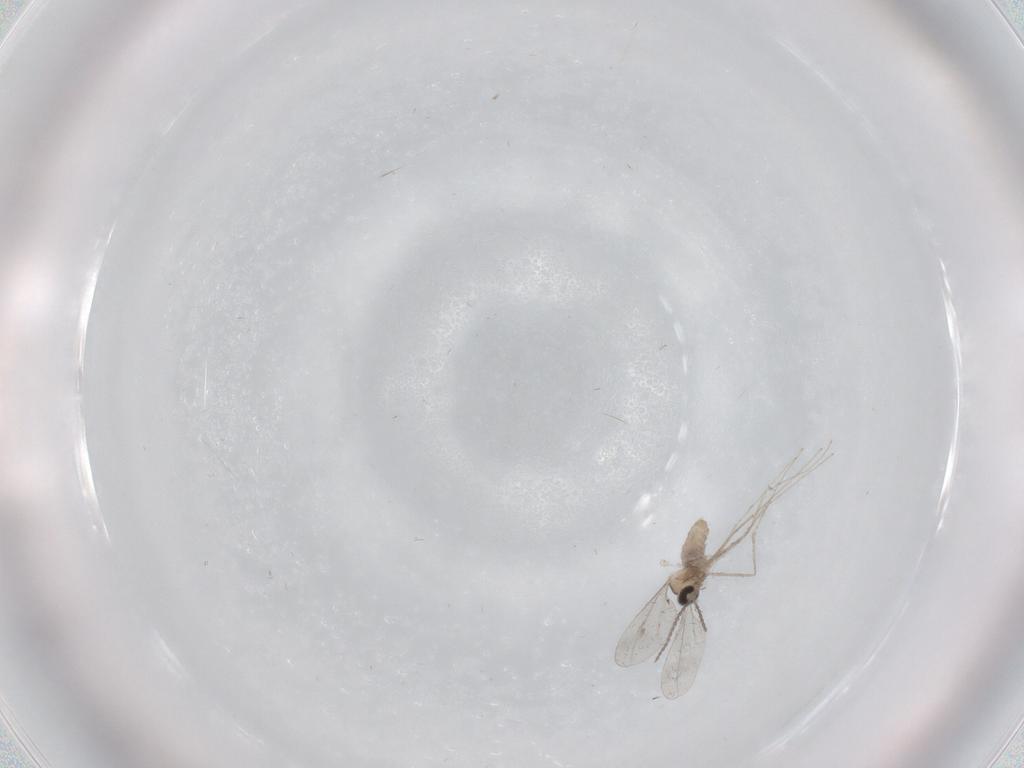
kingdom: Animalia
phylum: Arthropoda
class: Insecta
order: Diptera
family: Cecidomyiidae
